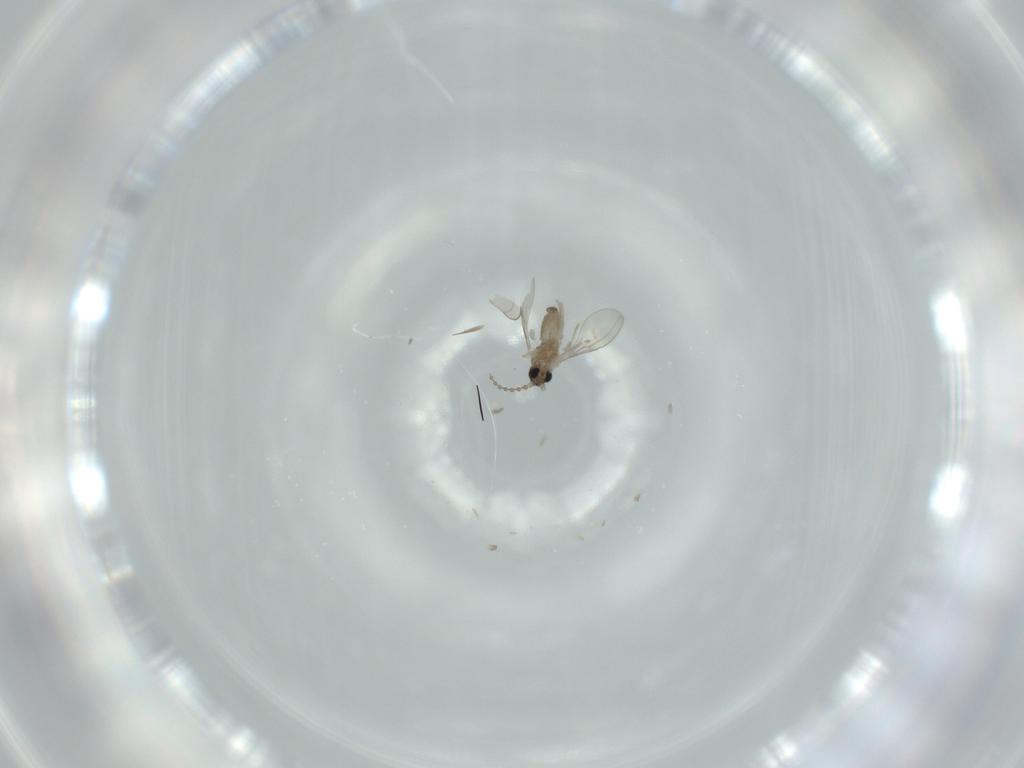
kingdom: Animalia
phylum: Arthropoda
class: Insecta
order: Diptera
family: Cecidomyiidae
